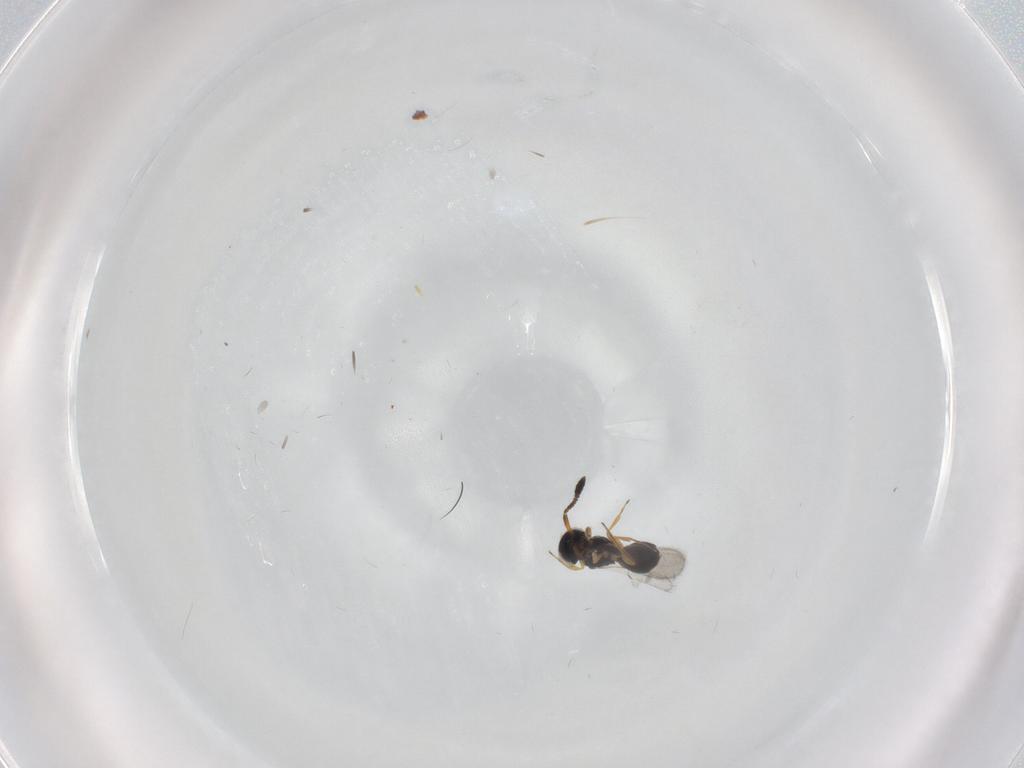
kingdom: Animalia
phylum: Arthropoda
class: Insecta
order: Hymenoptera
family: Scelionidae
